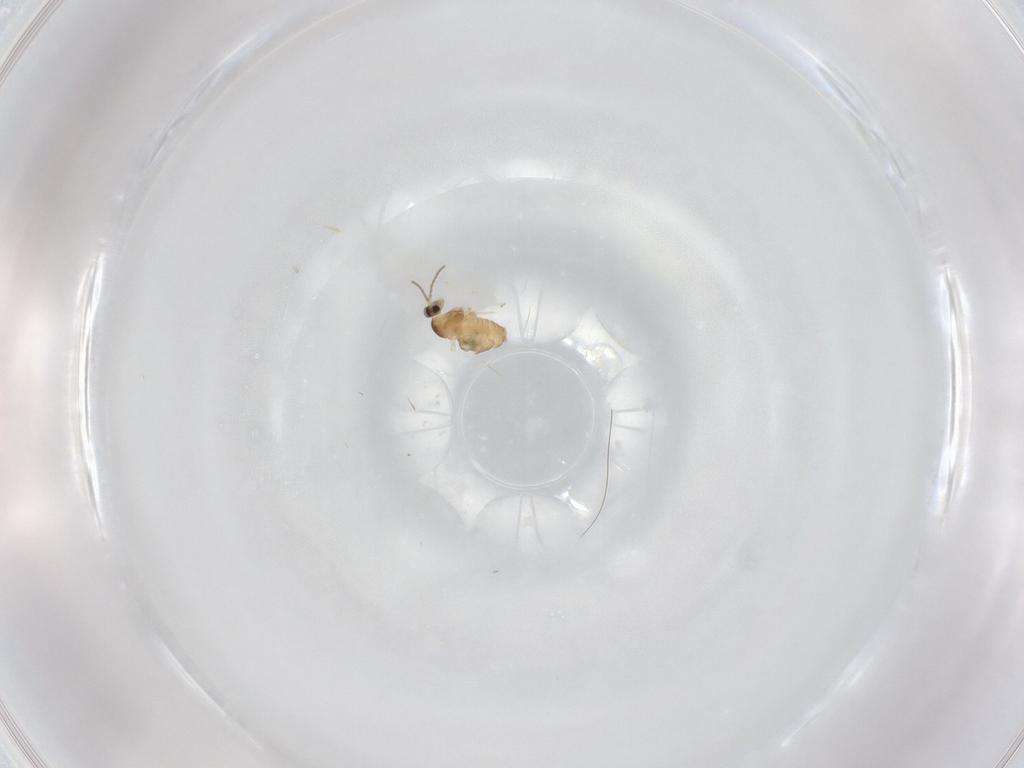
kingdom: Animalia
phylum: Arthropoda
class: Insecta
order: Diptera
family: Cecidomyiidae
